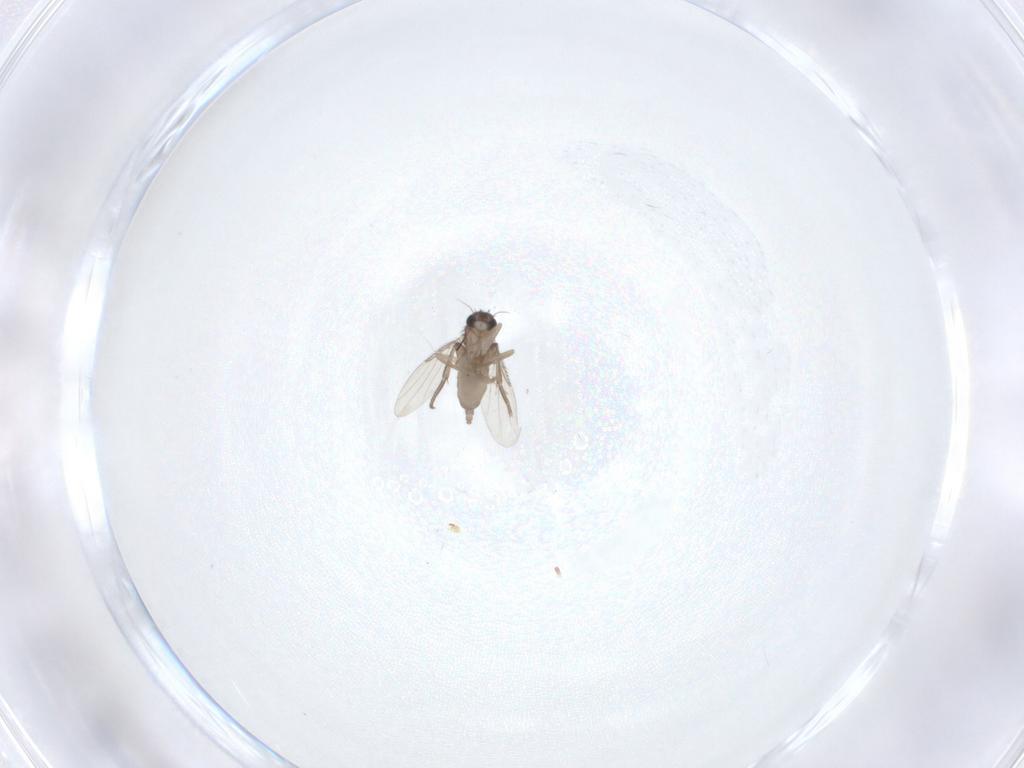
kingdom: Animalia
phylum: Arthropoda
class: Insecta
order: Diptera
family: Phoridae
